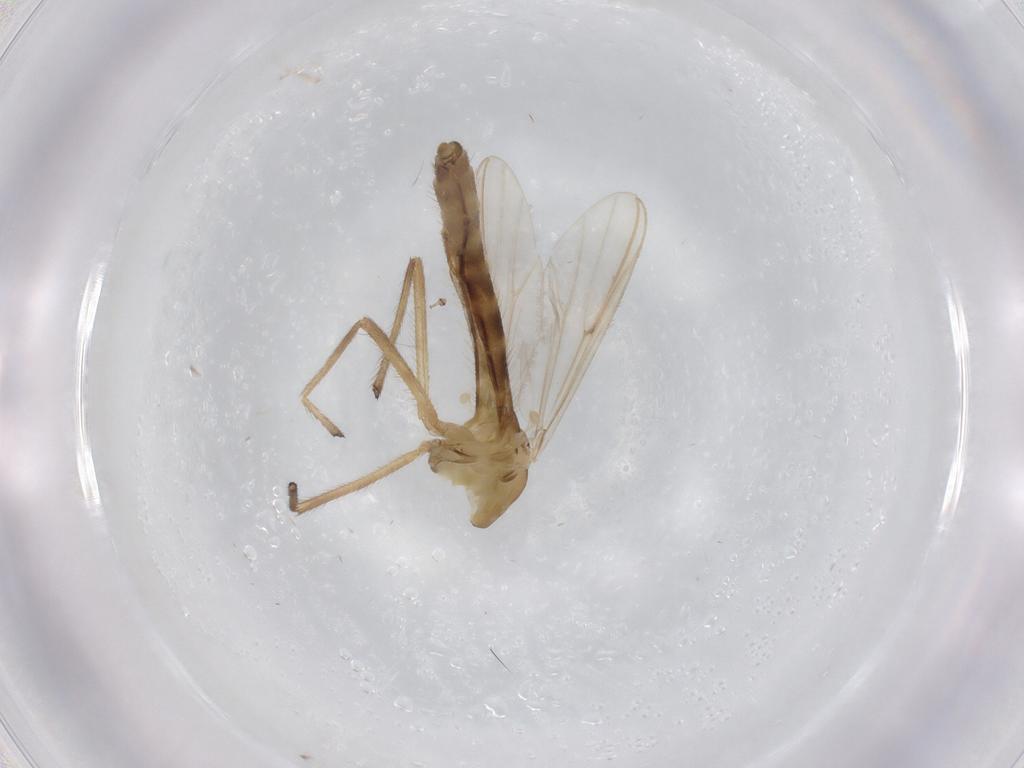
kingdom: Animalia
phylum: Arthropoda
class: Insecta
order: Diptera
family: Chironomidae
